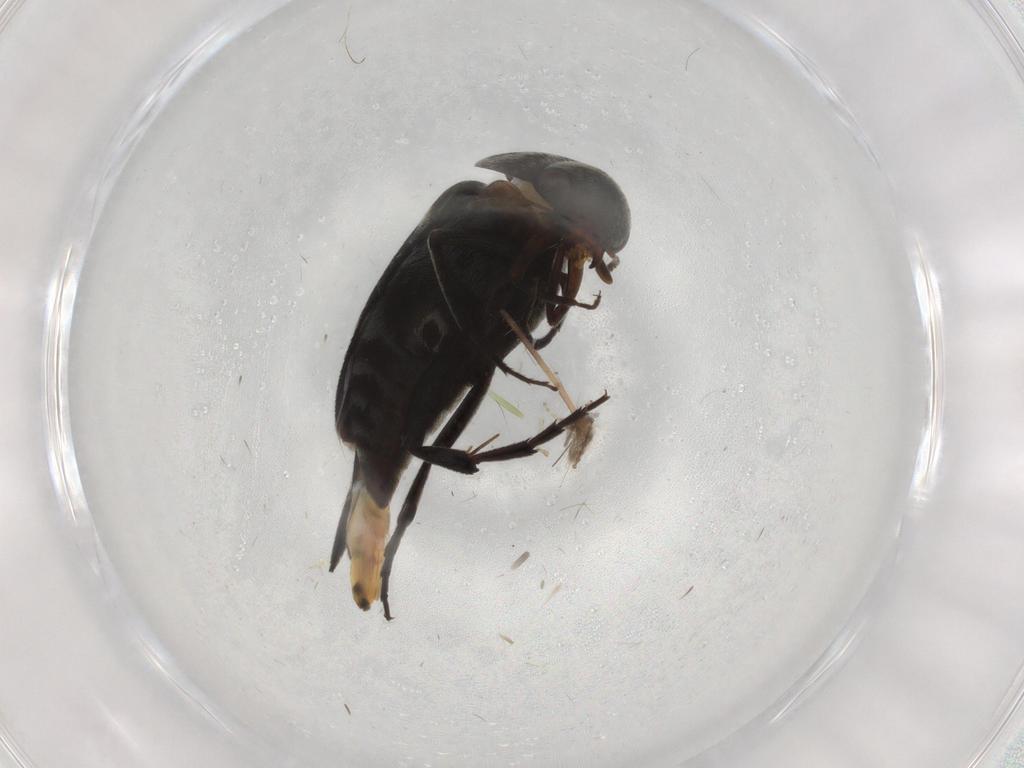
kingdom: Animalia
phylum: Arthropoda
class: Insecta
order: Coleoptera
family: Mordellidae
